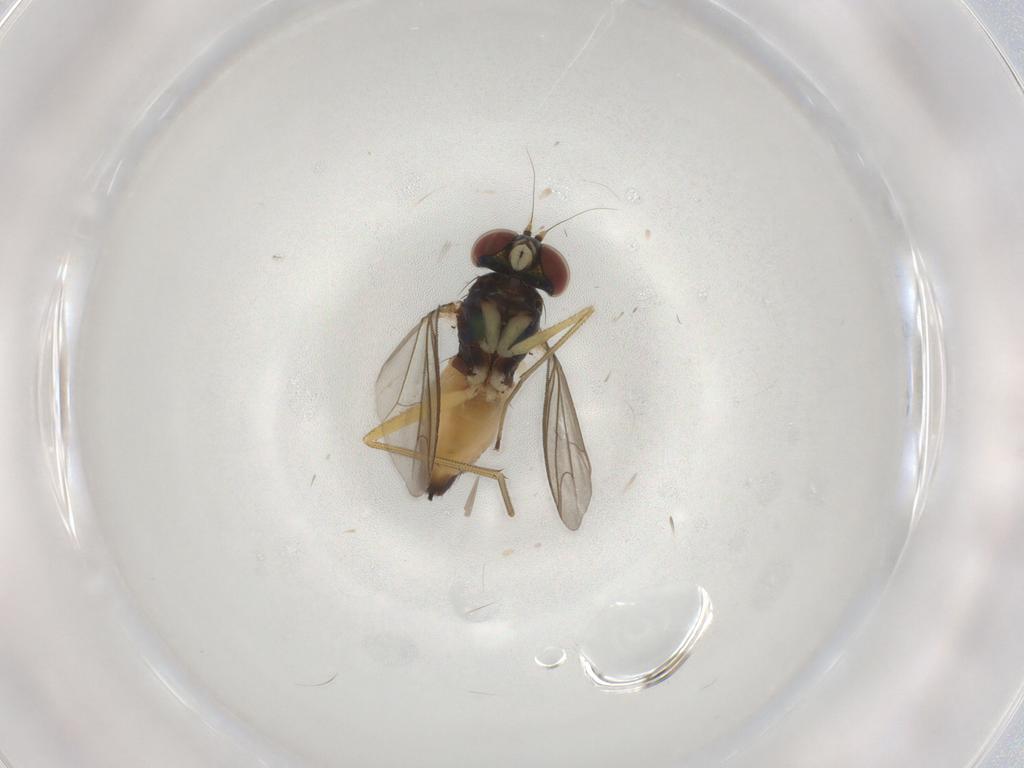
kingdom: Animalia
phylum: Arthropoda
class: Insecta
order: Diptera
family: Dolichopodidae
